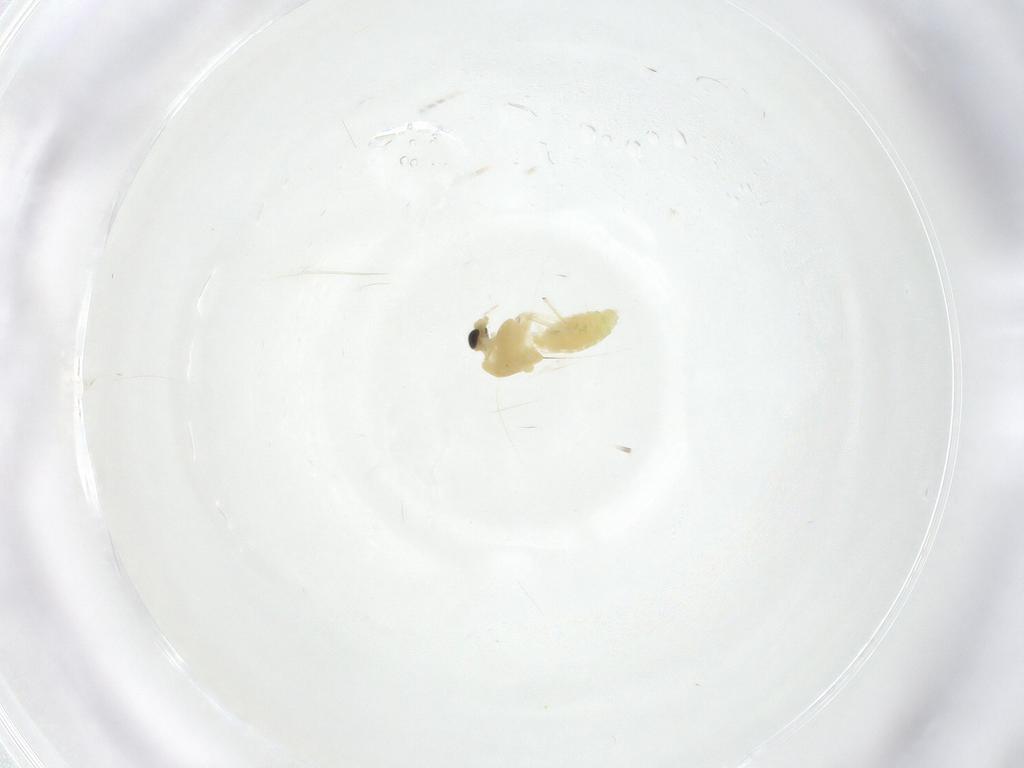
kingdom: Animalia
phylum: Arthropoda
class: Insecta
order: Diptera
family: Chironomidae
